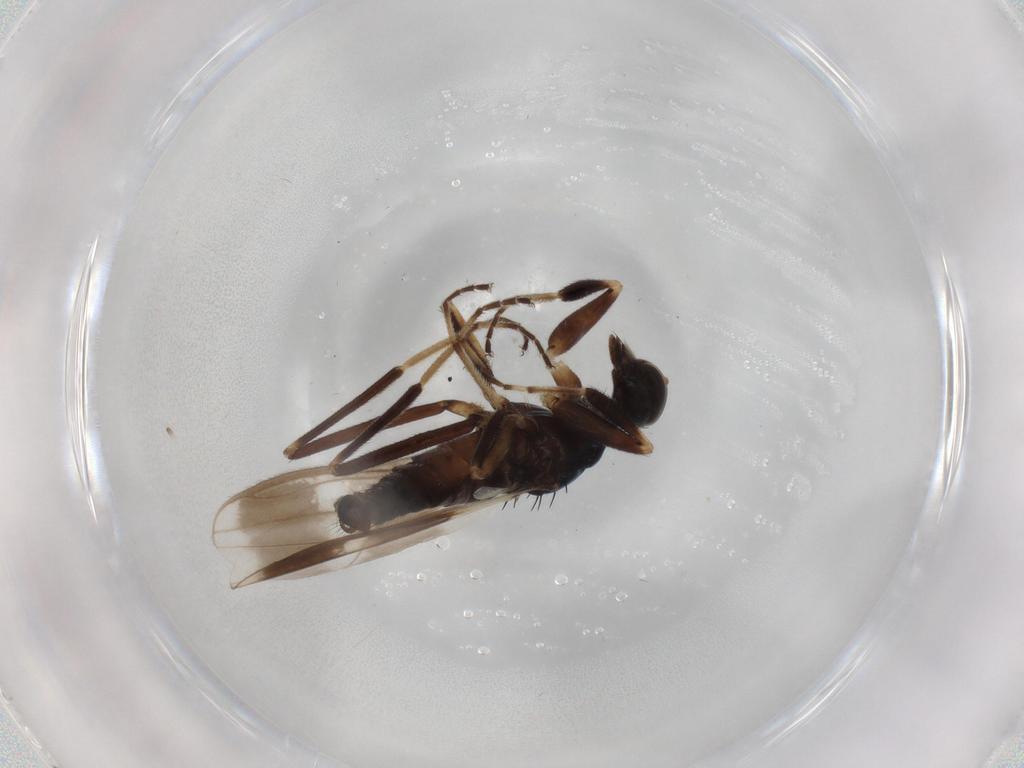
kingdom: Animalia
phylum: Arthropoda
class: Insecta
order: Diptera
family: Hybotidae
